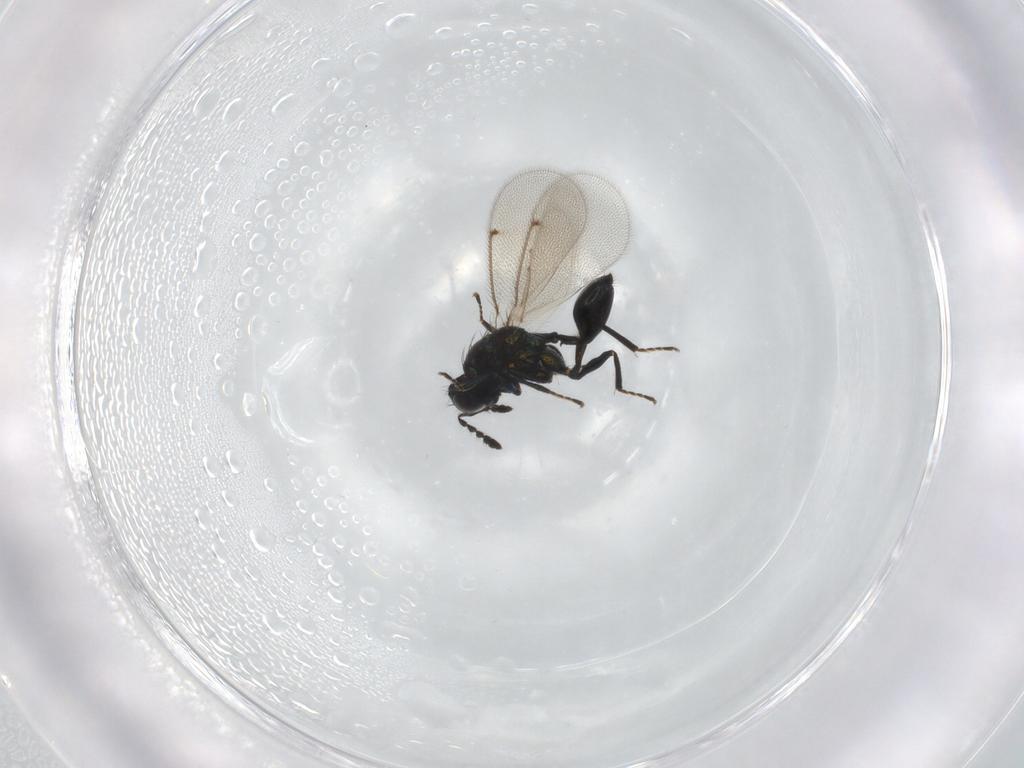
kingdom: Animalia
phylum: Arthropoda
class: Insecta
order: Hymenoptera
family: Eulophidae
